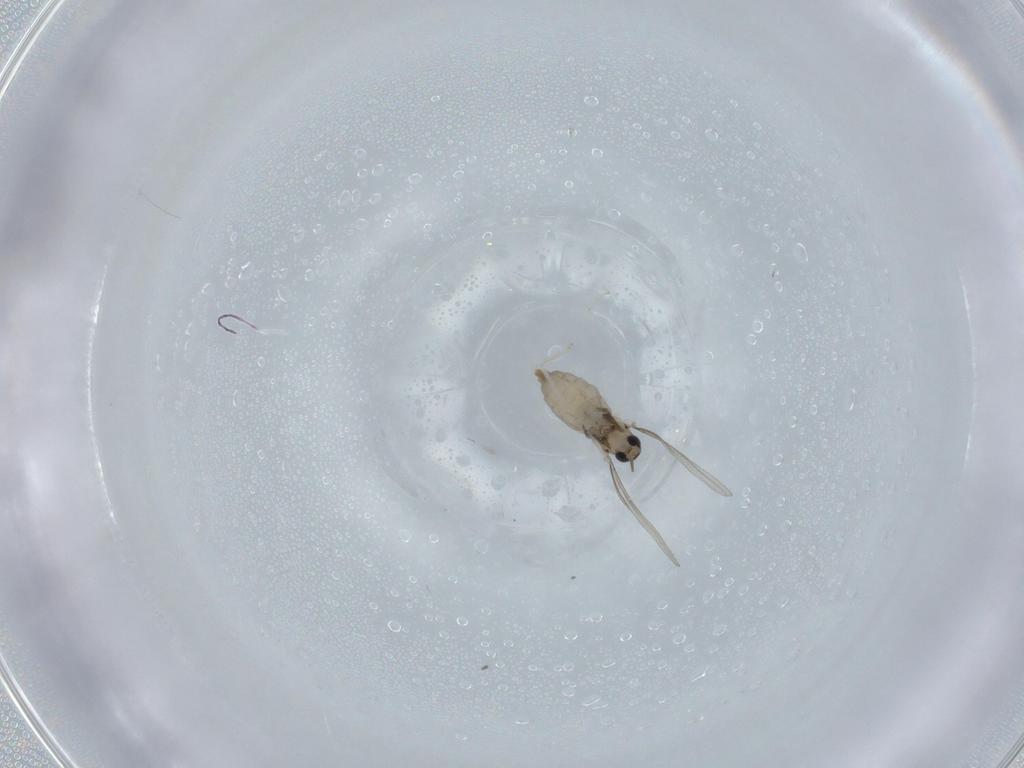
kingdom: Animalia
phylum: Arthropoda
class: Insecta
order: Diptera
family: Cecidomyiidae
